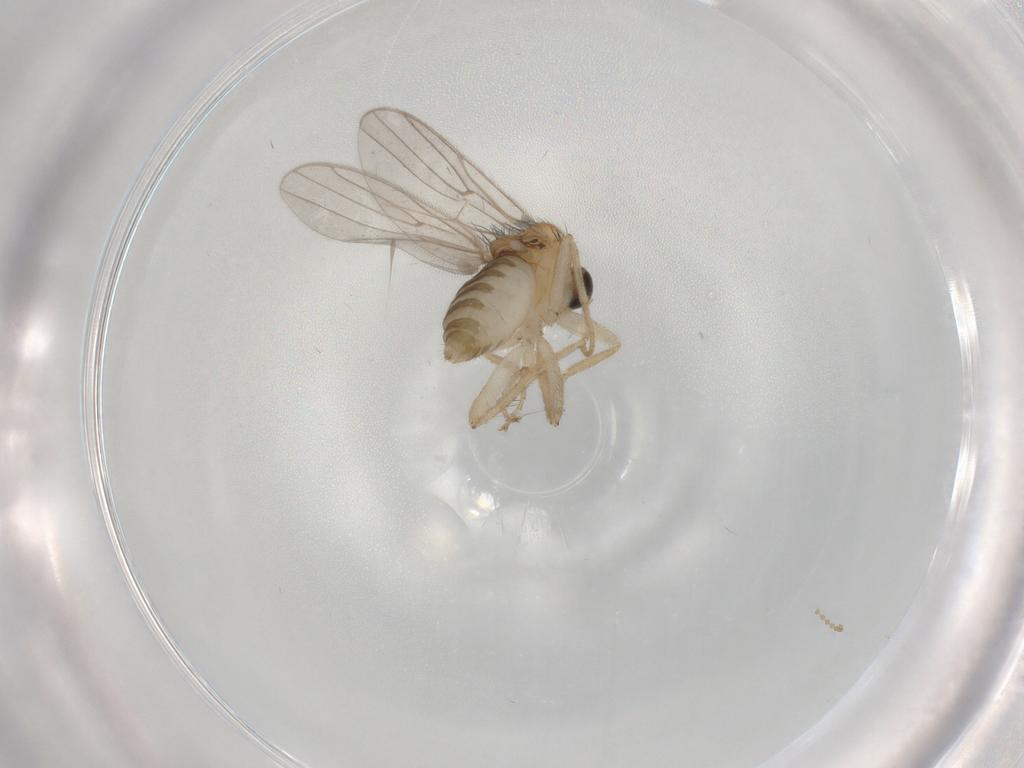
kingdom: Animalia
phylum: Arthropoda
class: Insecta
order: Diptera
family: Hybotidae
